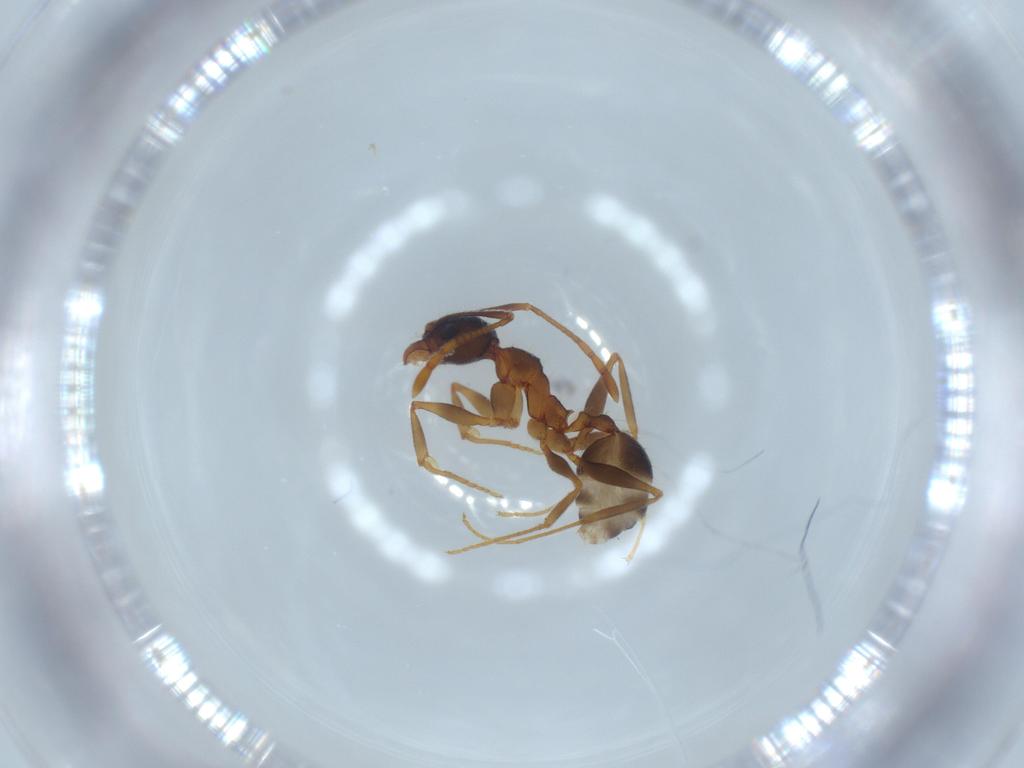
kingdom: Animalia
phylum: Arthropoda
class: Insecta
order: Hymenoptera
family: Formicidae
